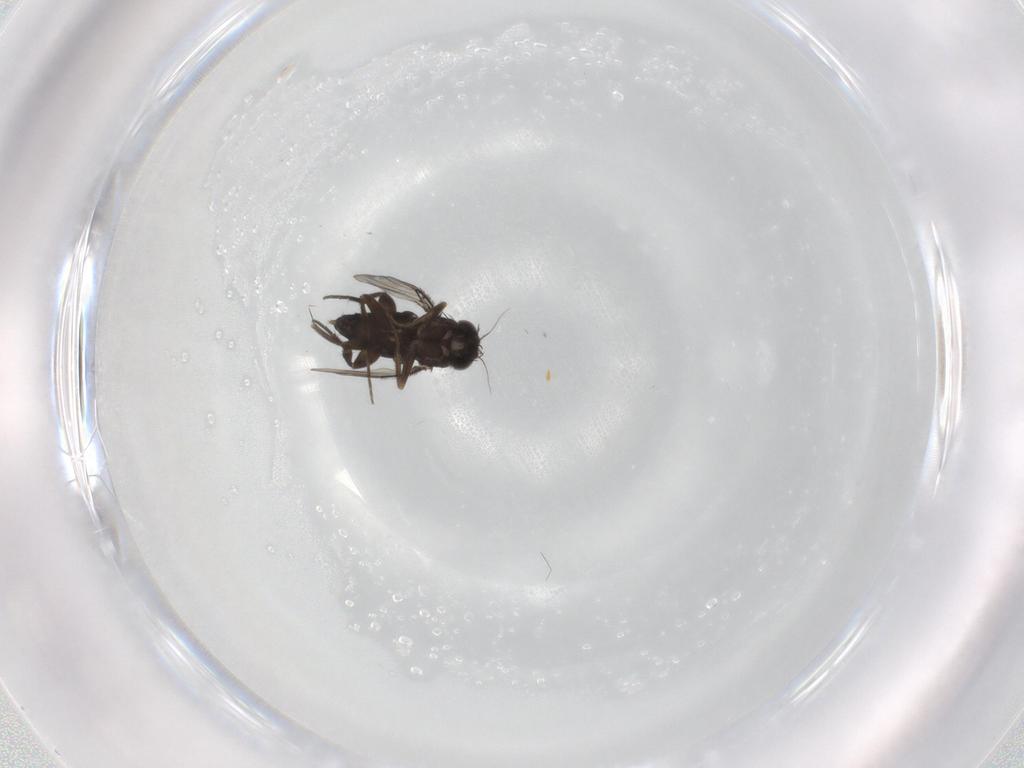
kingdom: Animalia
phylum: Arthropoda
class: Insecta
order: Diptera
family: Phoridae
